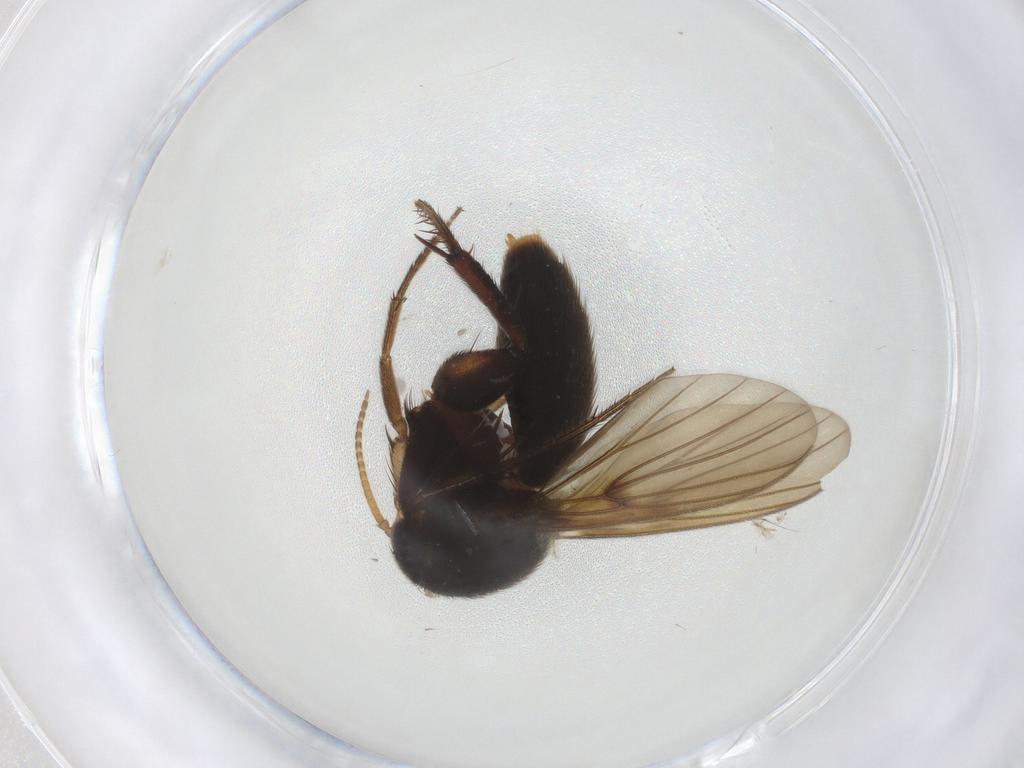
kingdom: Animalia
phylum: Arthropoda
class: Insecta
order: Diptera
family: Mycetophilidae
